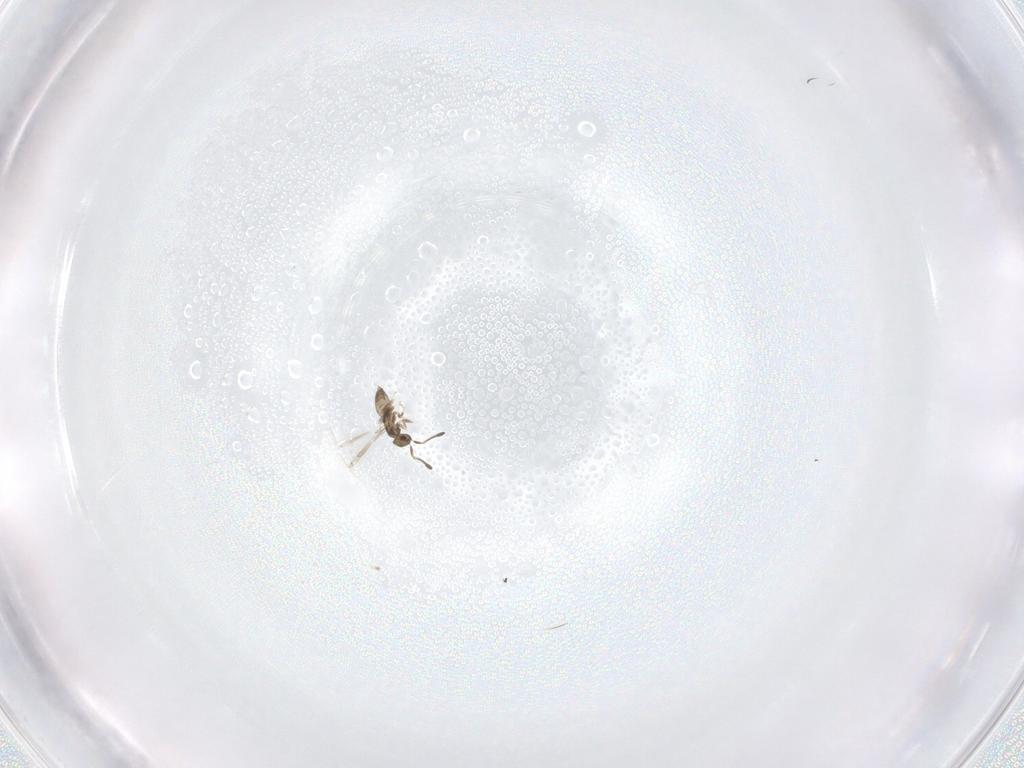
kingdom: Animalia
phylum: Arthropoda
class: Insecta
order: Hymenoptera
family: Mymaridae
